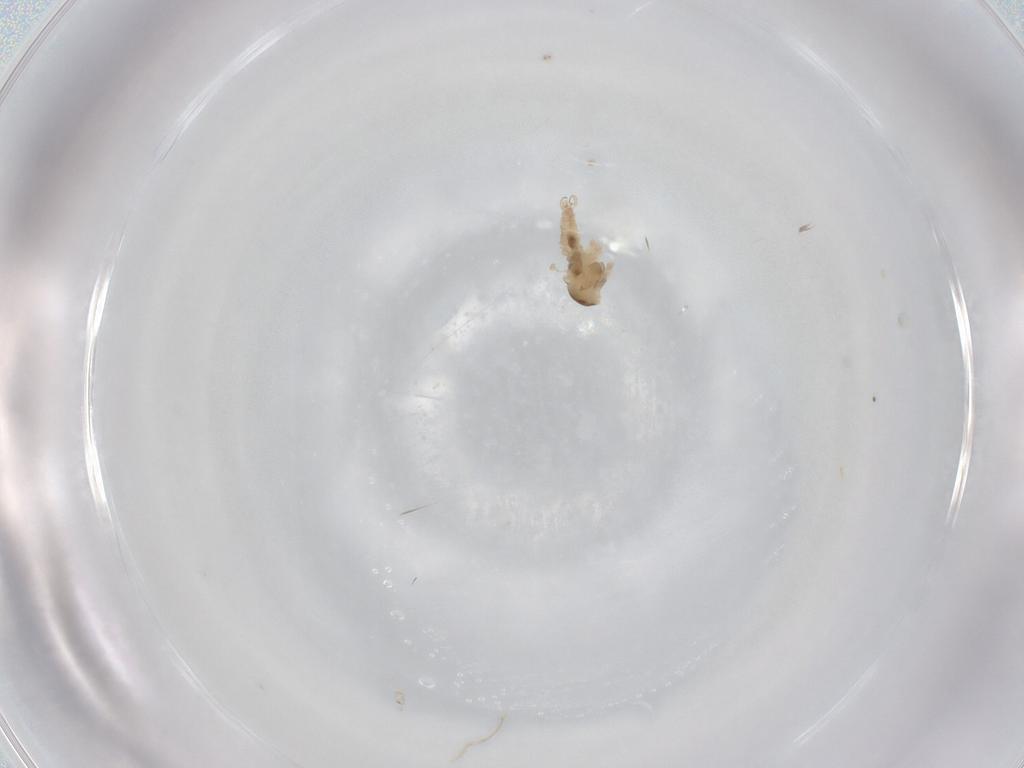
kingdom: Animalia
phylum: Arthropoda
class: Insecta
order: Diptera
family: Cecidomyiidae
